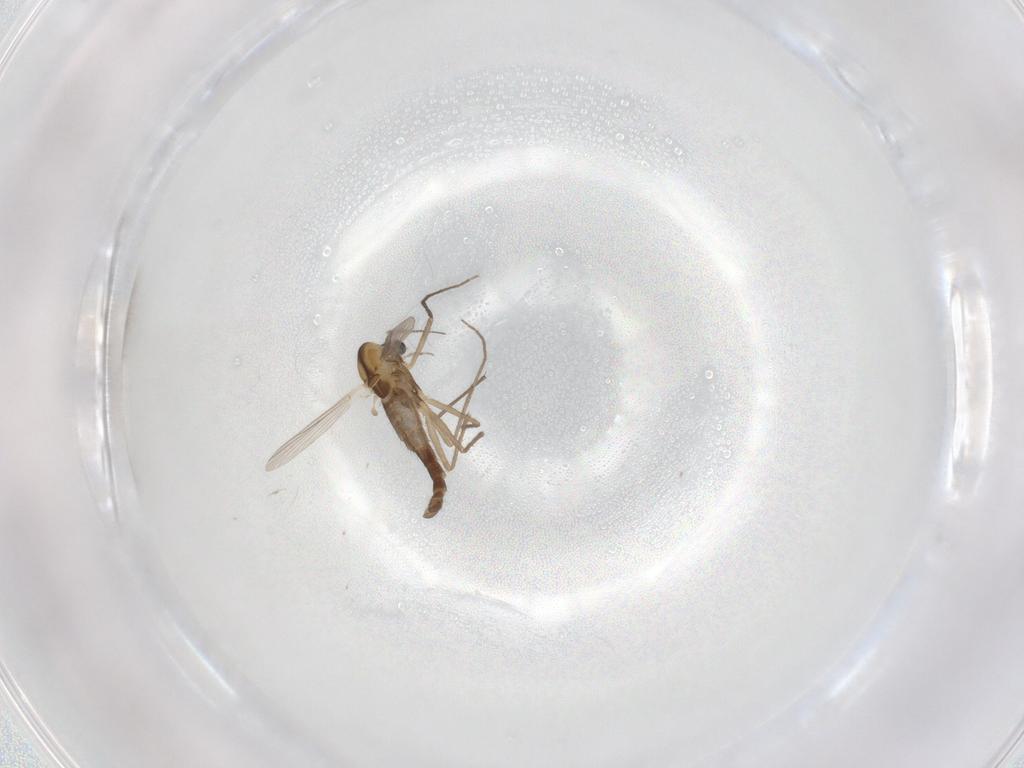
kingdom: Animalia
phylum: Arthropoda
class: Insecta
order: Diptera
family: Chironomidae
